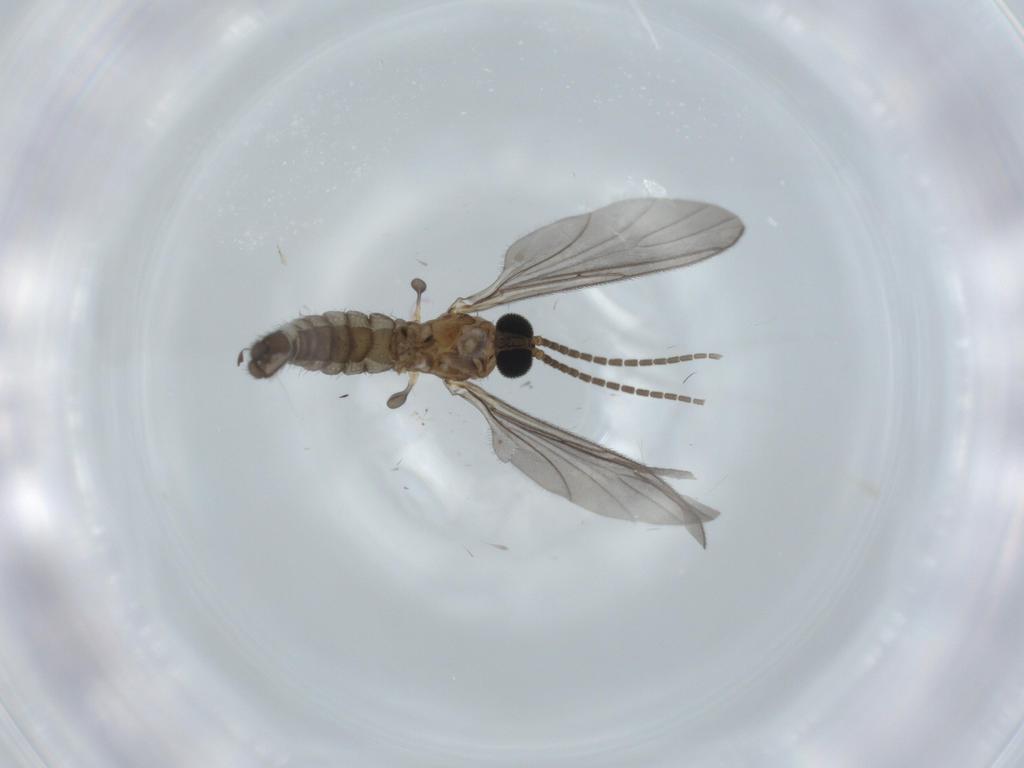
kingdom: Animalia
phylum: Arthropoda
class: Insecta
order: Diptera
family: Sciaridae
